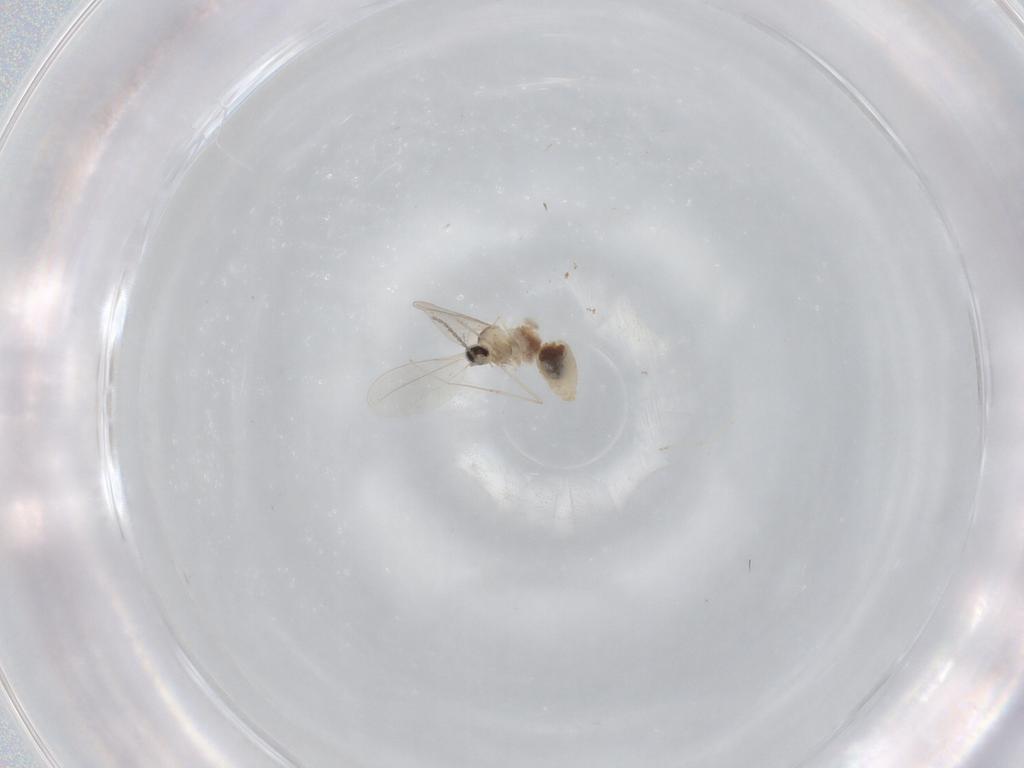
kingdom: Animalia
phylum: Arthropoda
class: Insecta
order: Diptera
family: Cecidomyiidae
